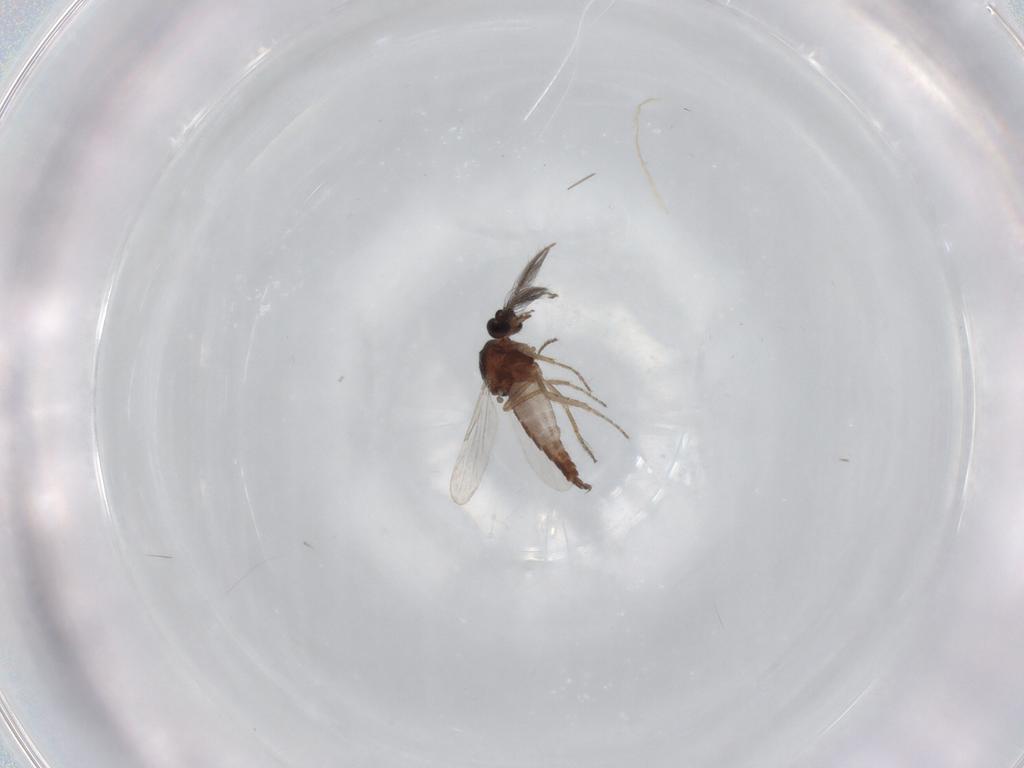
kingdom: Animalia
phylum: Arthropoda
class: Insecta
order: Diptera
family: Ceratopogonidae
